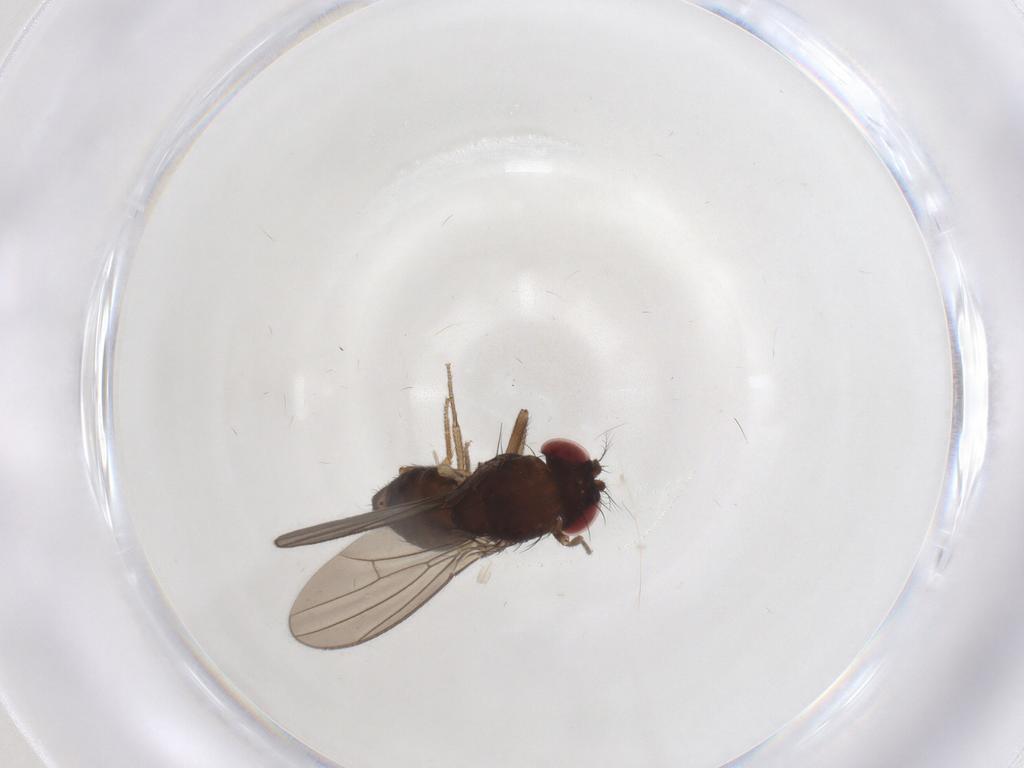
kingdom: Animalia
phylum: Arthropoda
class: Insecta
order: Diptera
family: Drosophilidae
